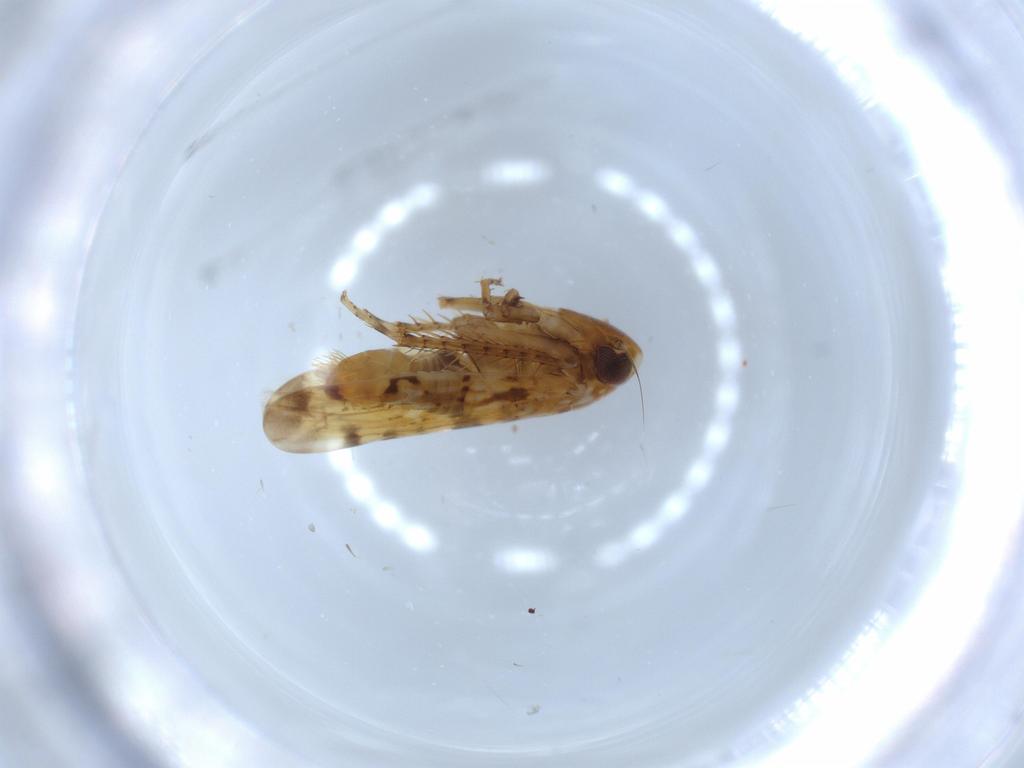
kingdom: Animalia
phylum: Arthropoda
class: Insecta
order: Hemiptera
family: Cicadellidae
